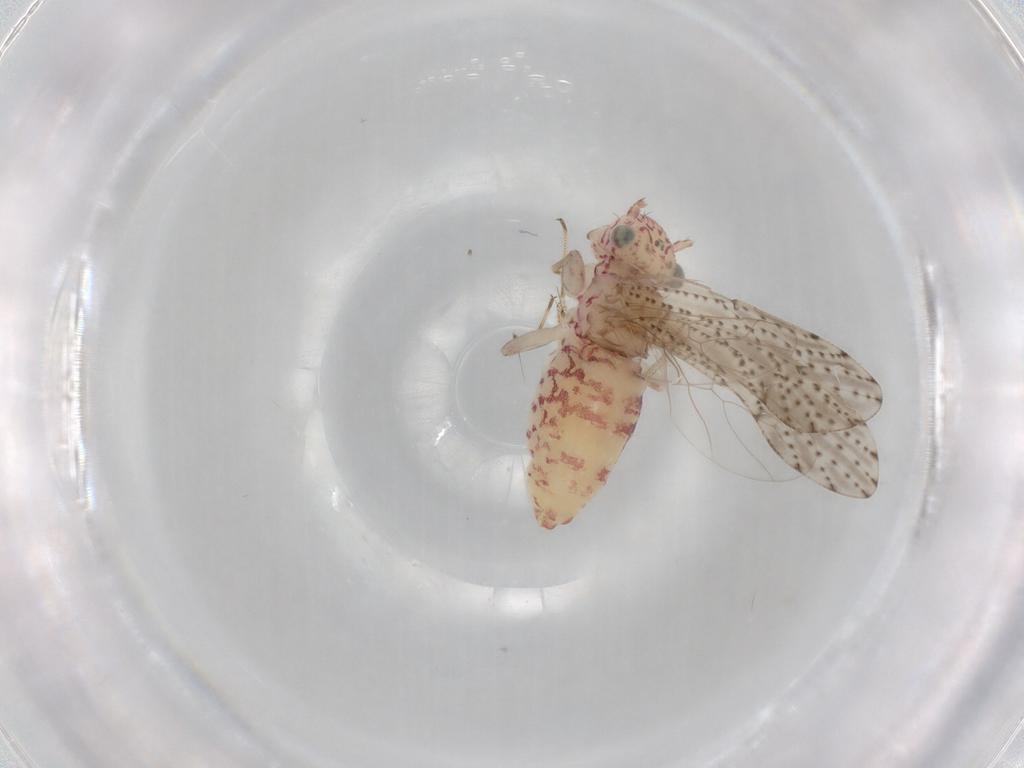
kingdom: Animalia
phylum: Arthropoda
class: Insecta
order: Psocodea
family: Philotarsidae
